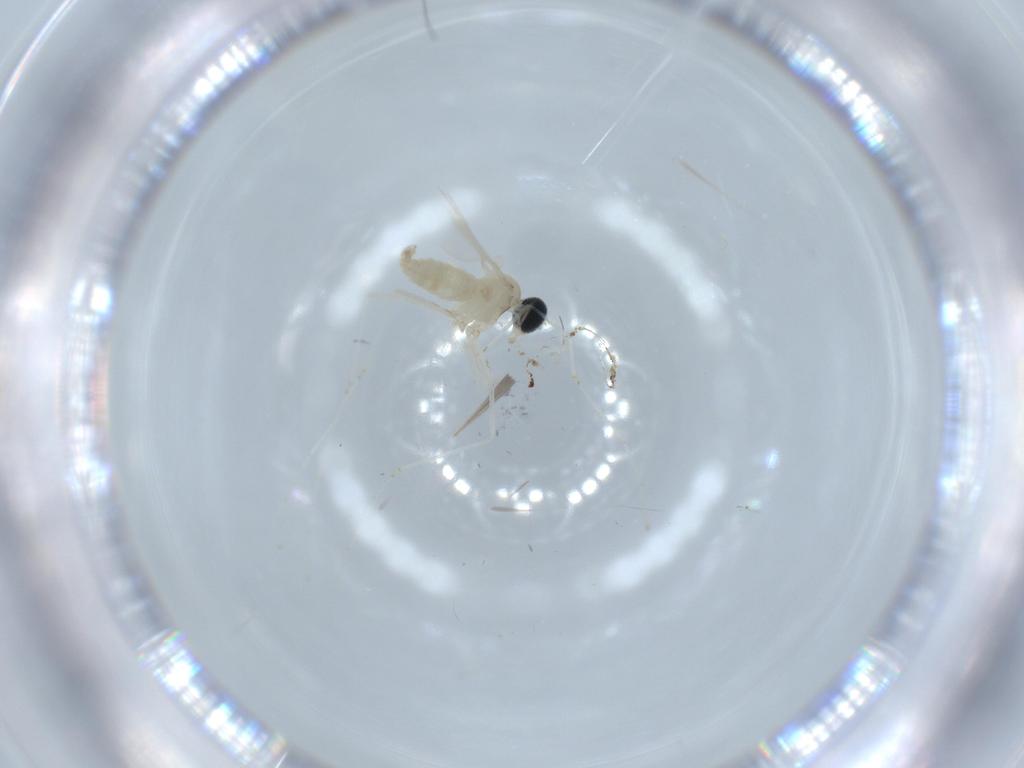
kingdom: Animalia
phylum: Arthropoda
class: Insecta
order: Diptera
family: Cecidomyiidae
